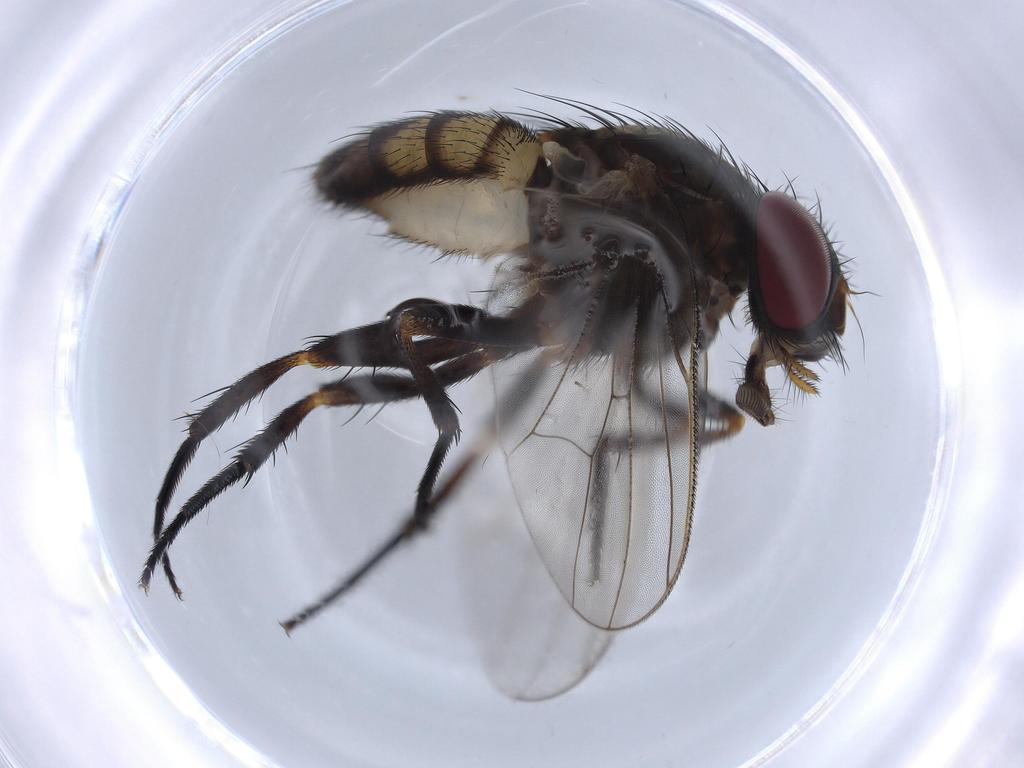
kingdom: Animalia
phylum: Arthropoda
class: Insecta
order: Diptera
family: Fannia
